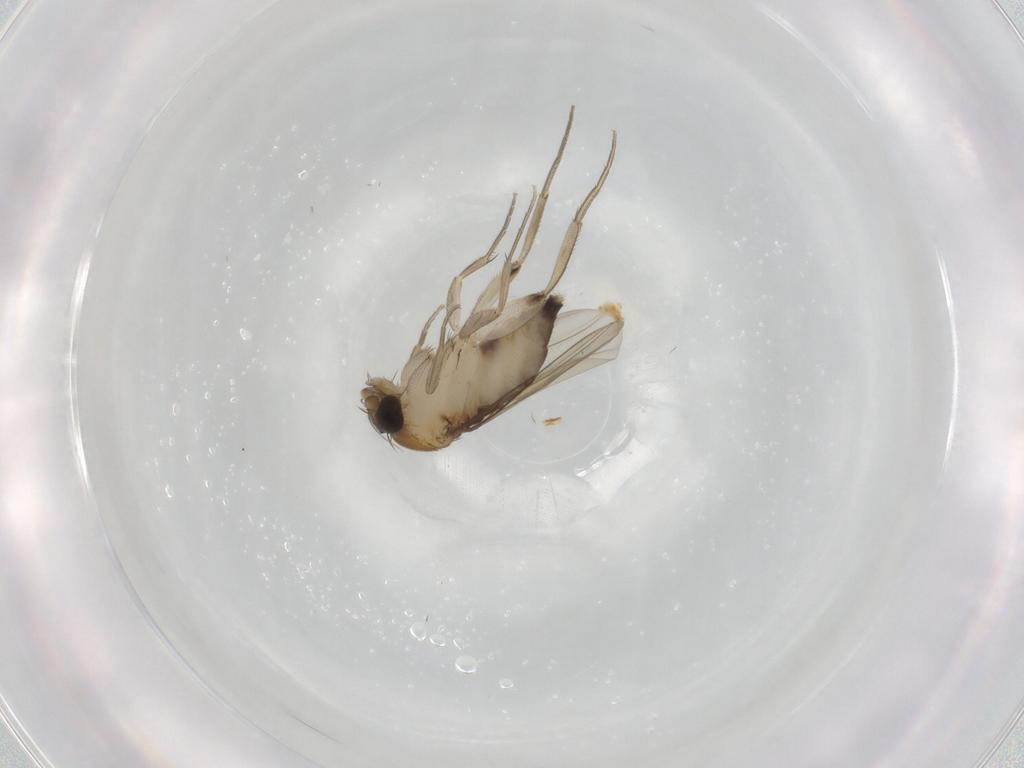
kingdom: Animalia
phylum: Arthropoda
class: Insecta
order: Diptera
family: Phoridae
